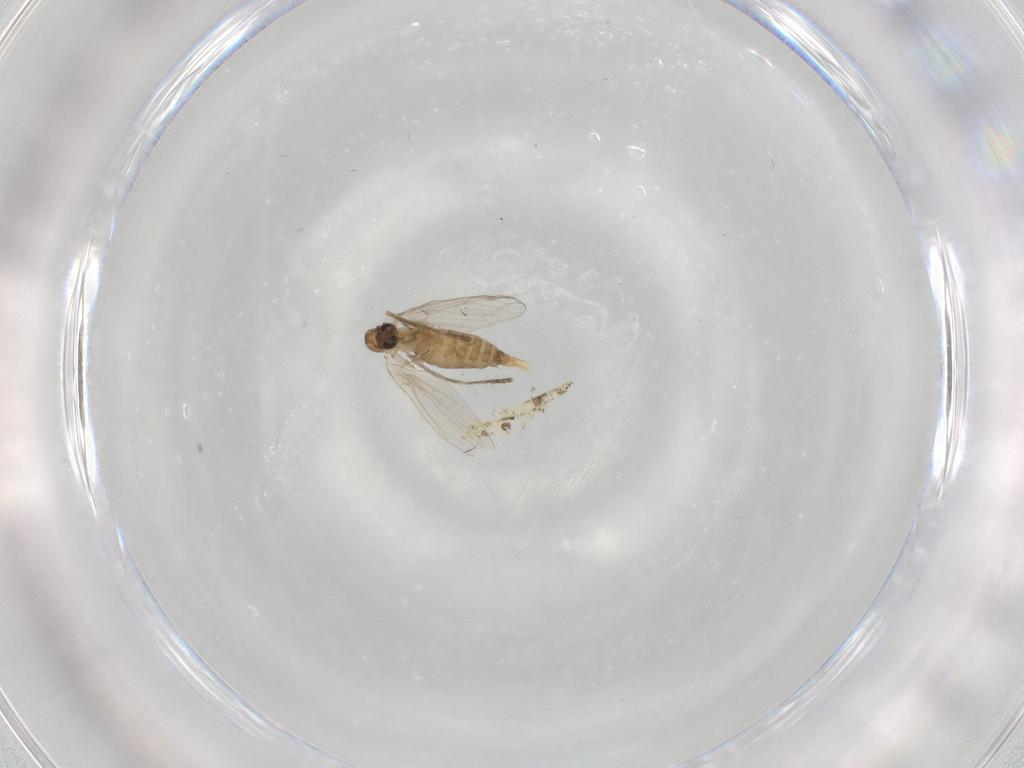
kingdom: Animalia
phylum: Arthropoda
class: Insecta
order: Diptera
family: Psychodidae
